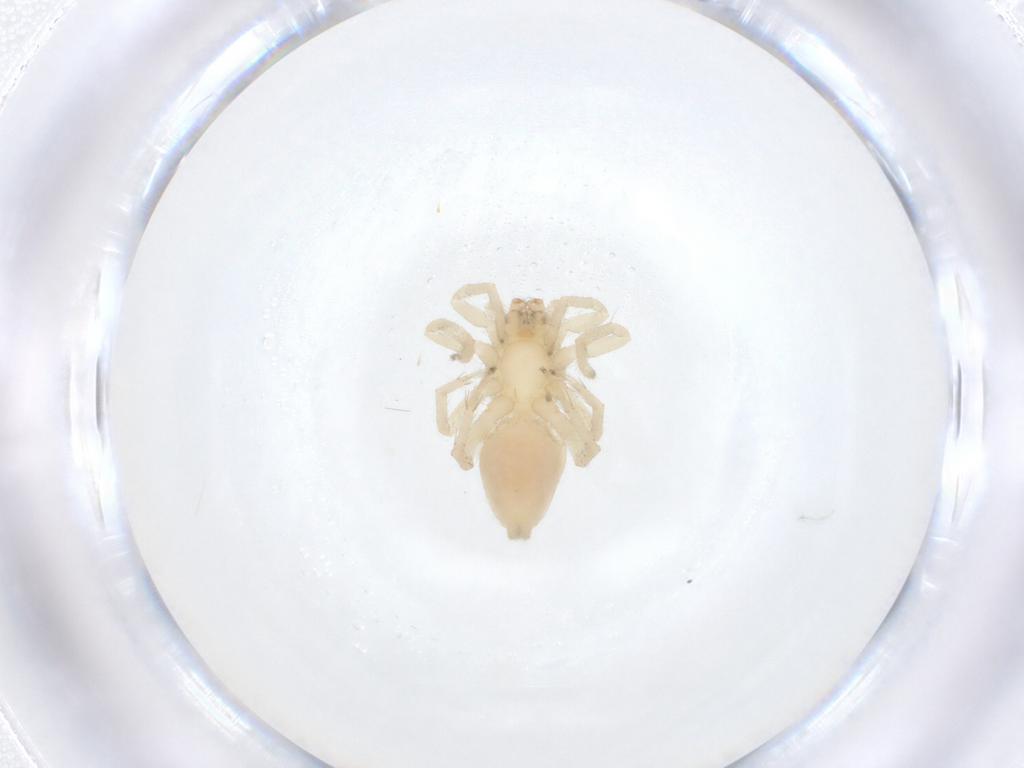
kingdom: Animalia
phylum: Arthropoda
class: Arachnida
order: Araneae
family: Clubionidae
